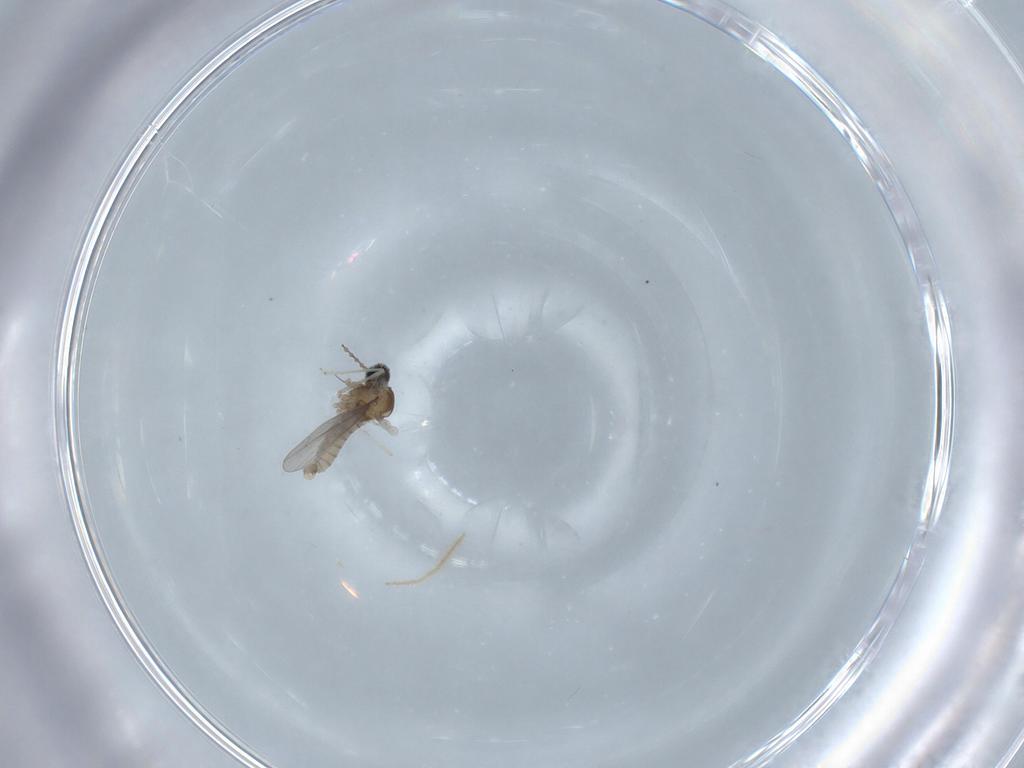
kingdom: Animalia
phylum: Arthropoda
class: Insecta
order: Diptera
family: Cecidomyiidae
